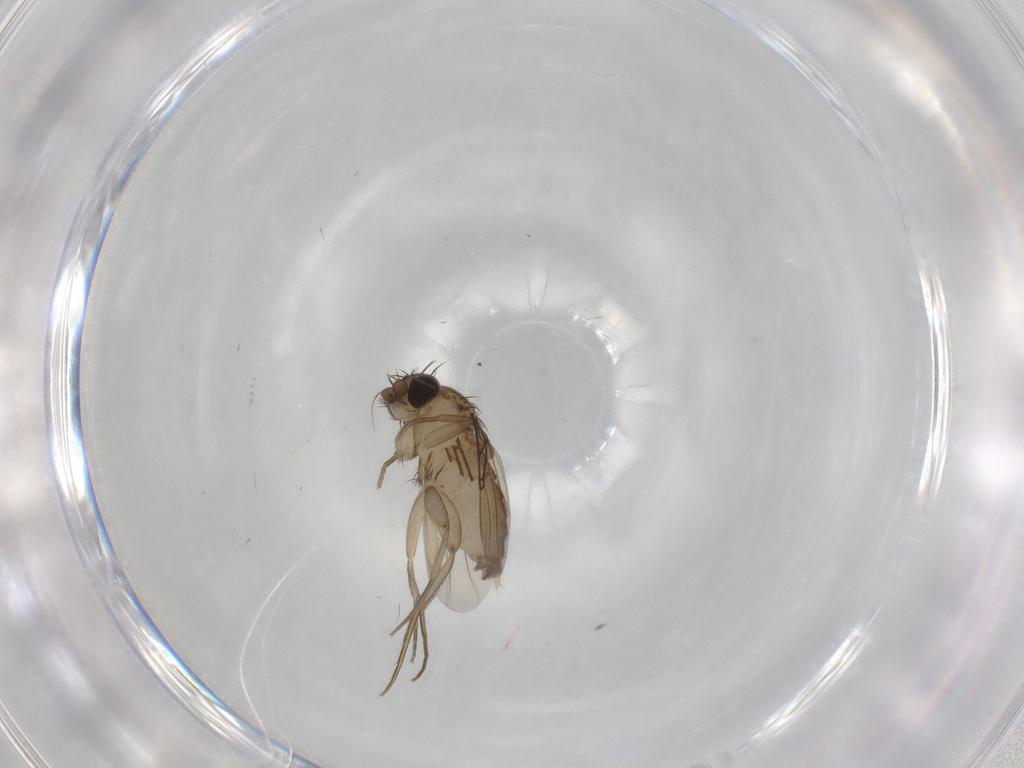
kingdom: Animalia
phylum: Arthropoda
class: Insecta
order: Diptera
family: Phoridae
